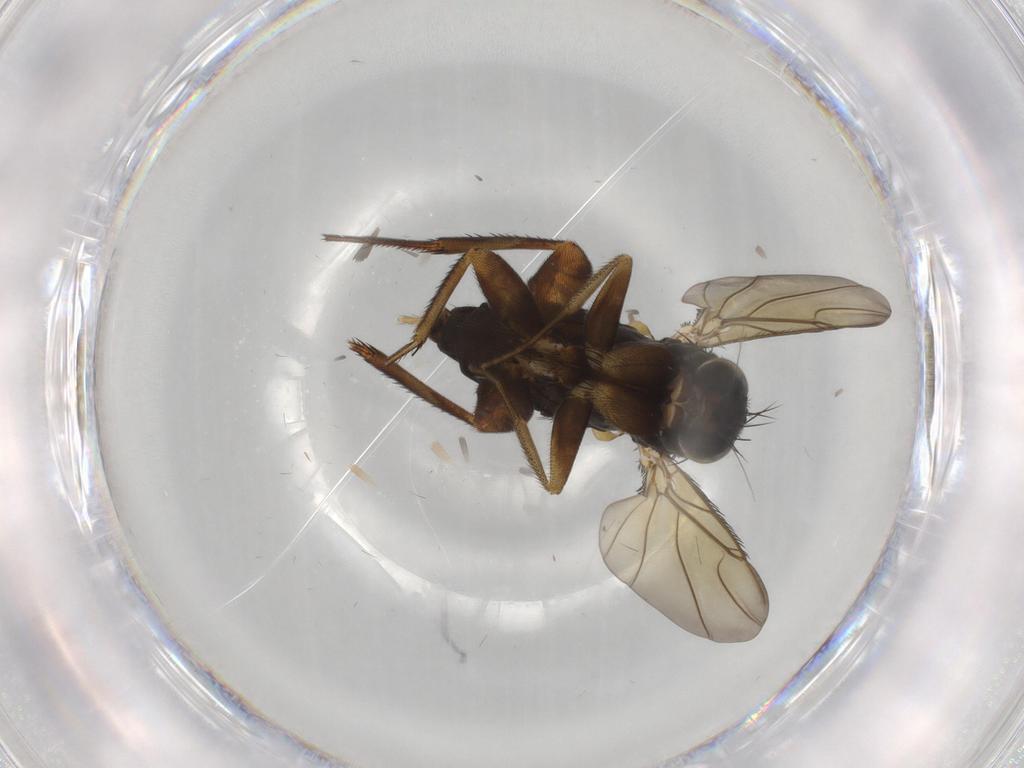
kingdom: Animalia
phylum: Arthropoda
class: Insecta
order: Diptera
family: Phoridae
